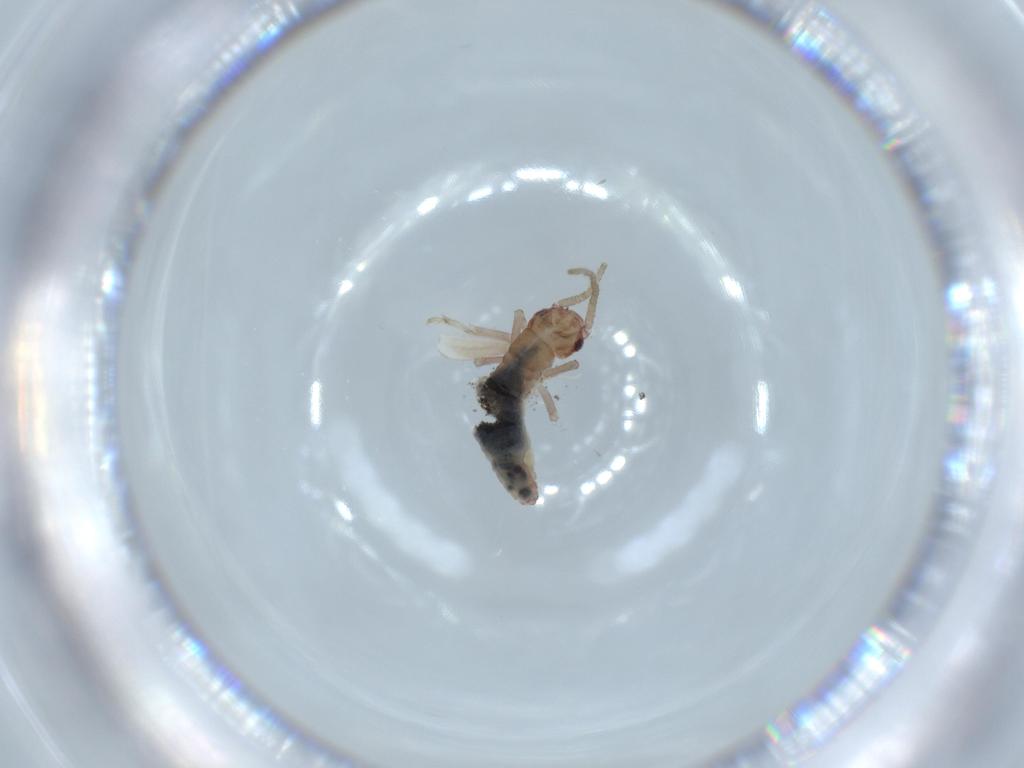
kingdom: Animalia
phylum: Arthropoda
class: Insecta
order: Psocodea
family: Caeciliusidae
